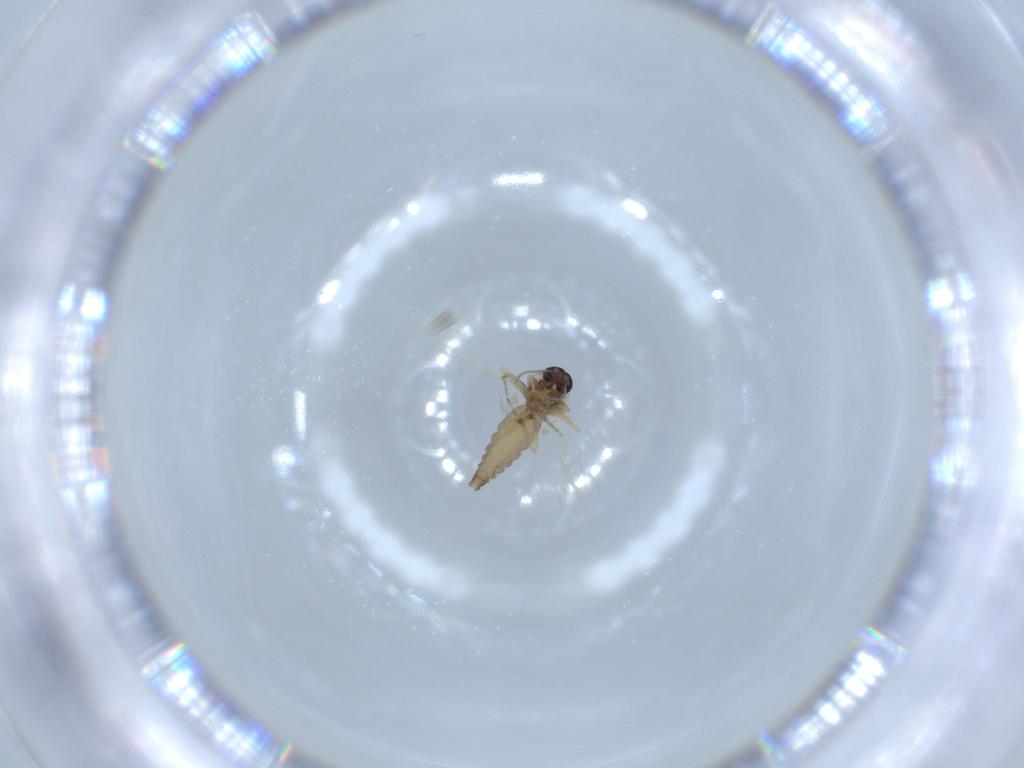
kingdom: Animalia
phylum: Arthropoda
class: Insecta
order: Diptera
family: Ceratopogonidae
